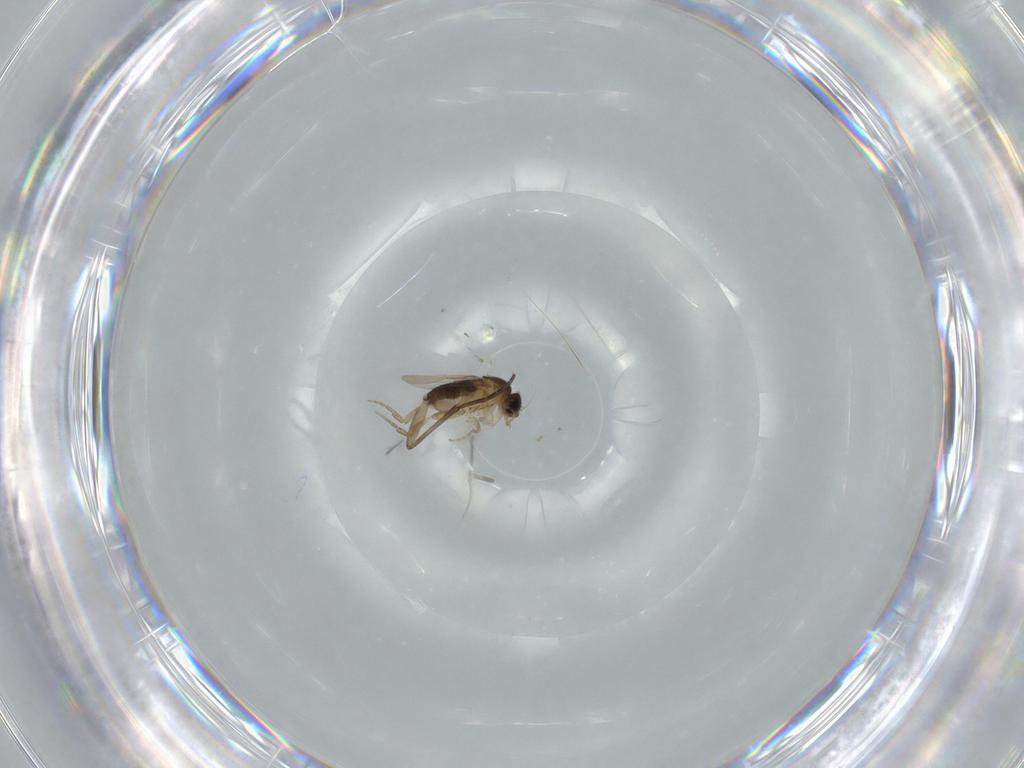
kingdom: Animalia
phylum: Arthropoda
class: Insecta
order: Diptera
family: Phoridae
